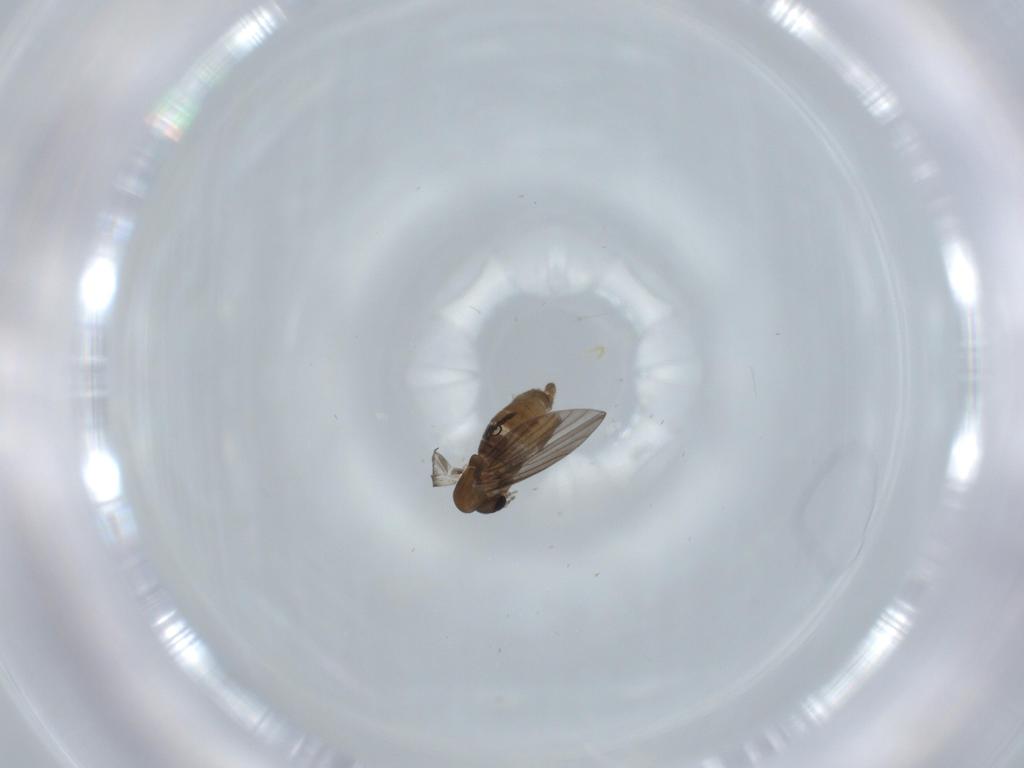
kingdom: Animalia
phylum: Arthropoda
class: Insecta
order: Diptera
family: Psychodidae
